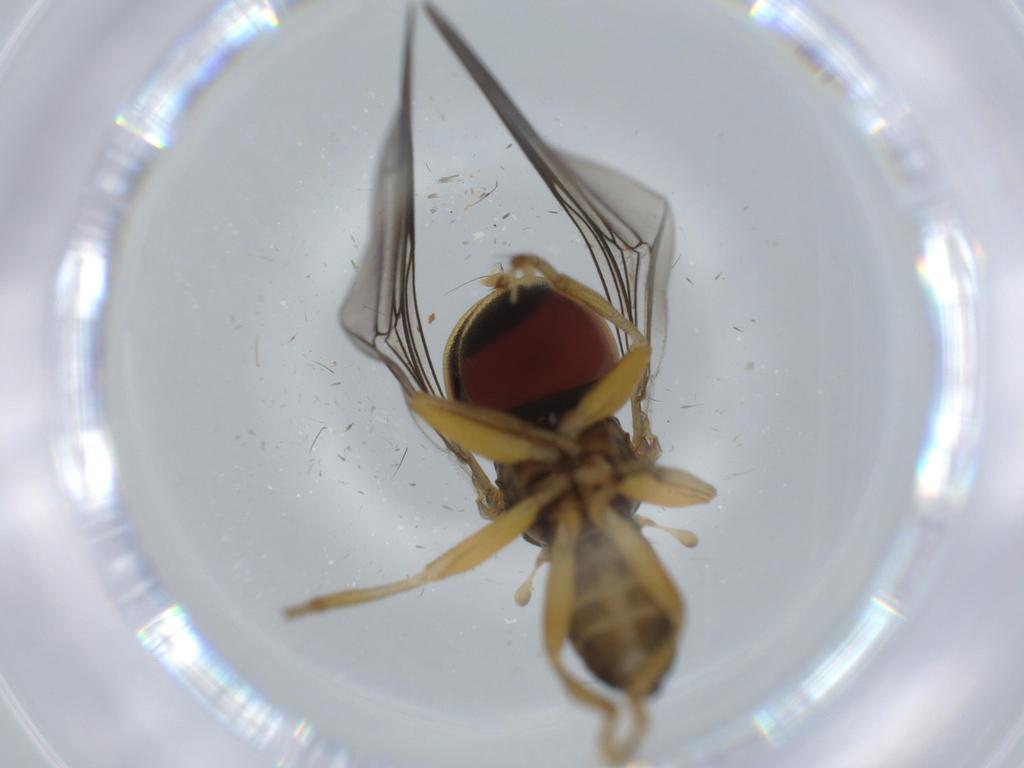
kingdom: Animalia
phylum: Arthropoda
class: Insecta
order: Diptera
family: Pipunculidae
